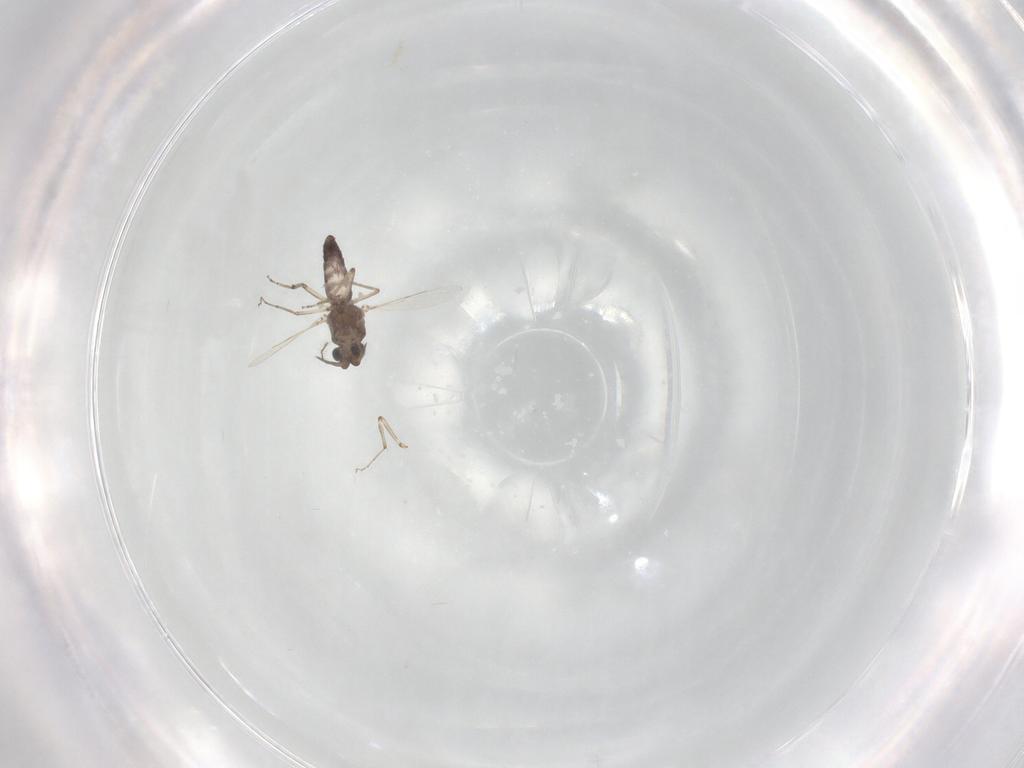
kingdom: Animalia
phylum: Arthropoda
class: Insecta
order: Diptera
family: Ceratopogonidae
